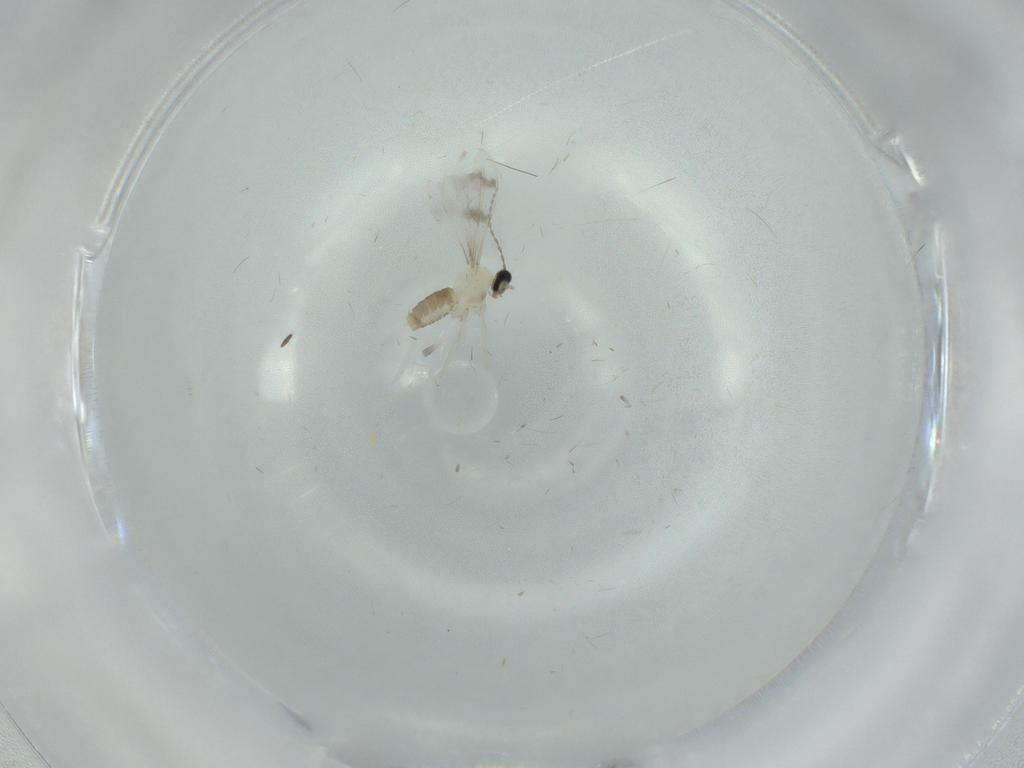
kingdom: Animalia
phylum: Arthropoda
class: Insecta
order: Diptera
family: Sciaridae
